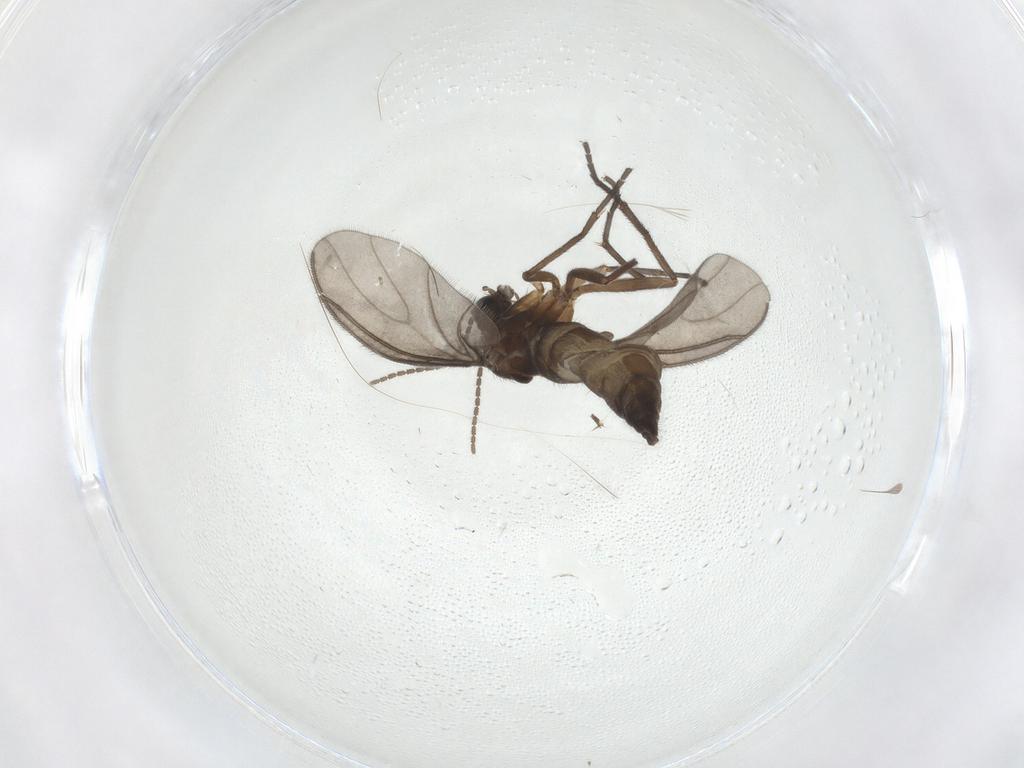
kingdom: Animalia
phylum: Arthropoda
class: Insecta
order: Diptera
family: Sciaridae
